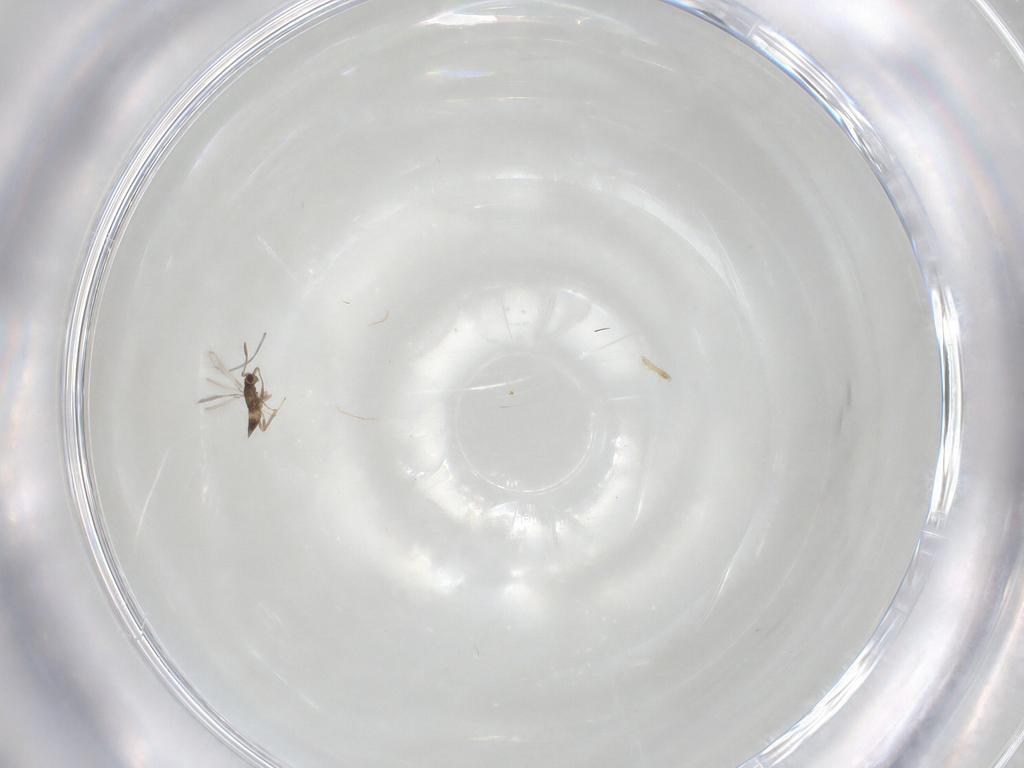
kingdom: Animalia
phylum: Arthropoda
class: Insecta
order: Hymenoptera
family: Mymaridae
